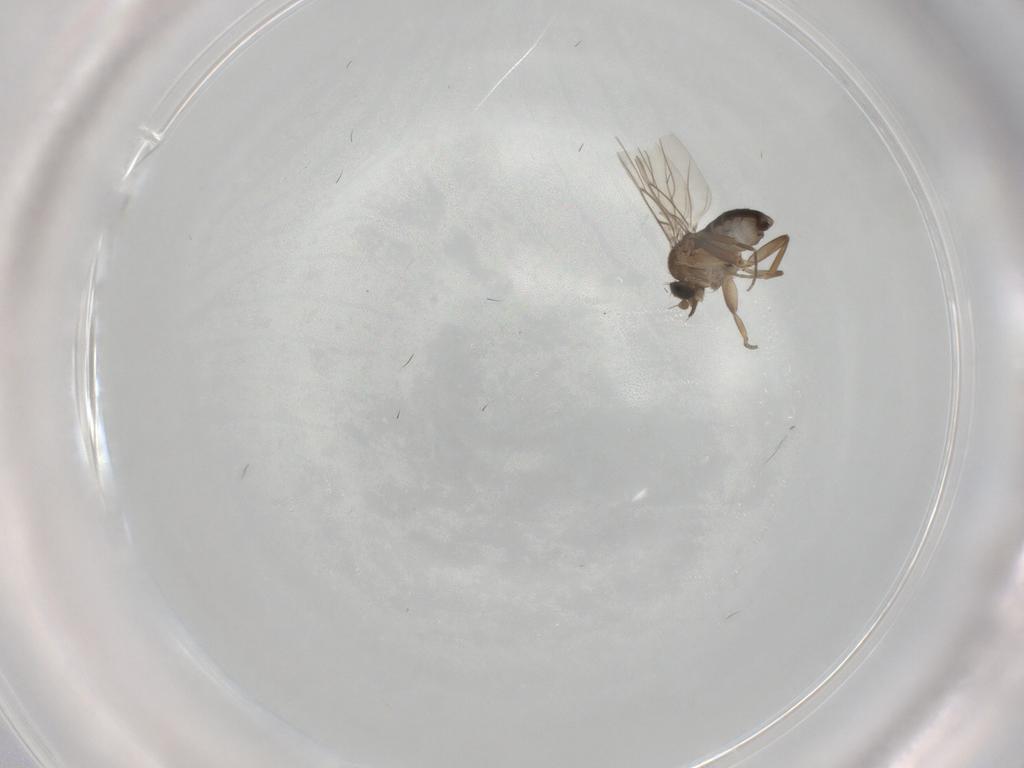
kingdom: Animalia
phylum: Arthropoda
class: Insecta
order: Diptera
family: Phoridae
